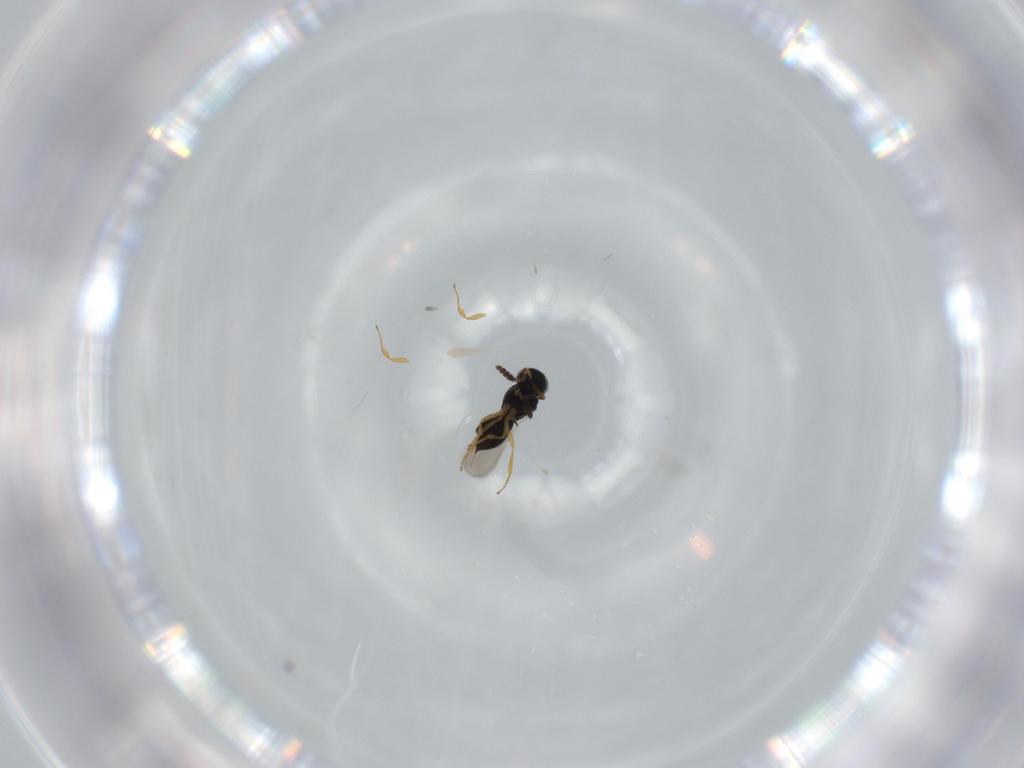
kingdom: Animalia
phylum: Arthropoda
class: Insecta
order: Hymenoptera
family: Scelionidae
